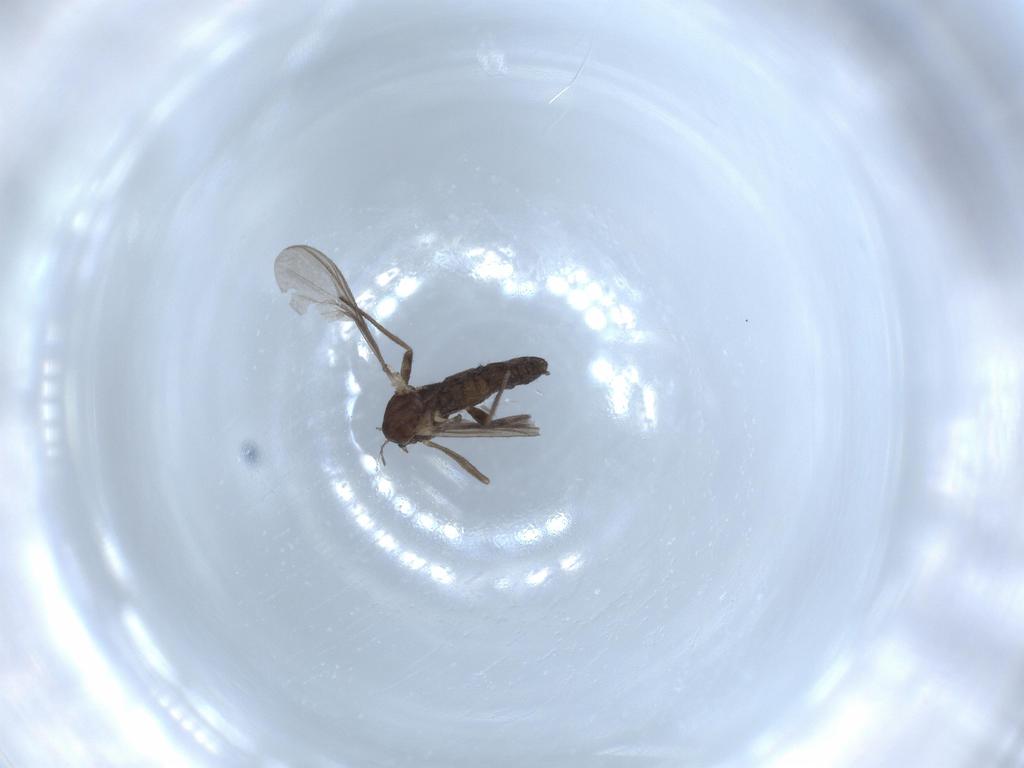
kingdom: Animalia
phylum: Arthropoda
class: Insecta
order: Diptera
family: Chironomidae
